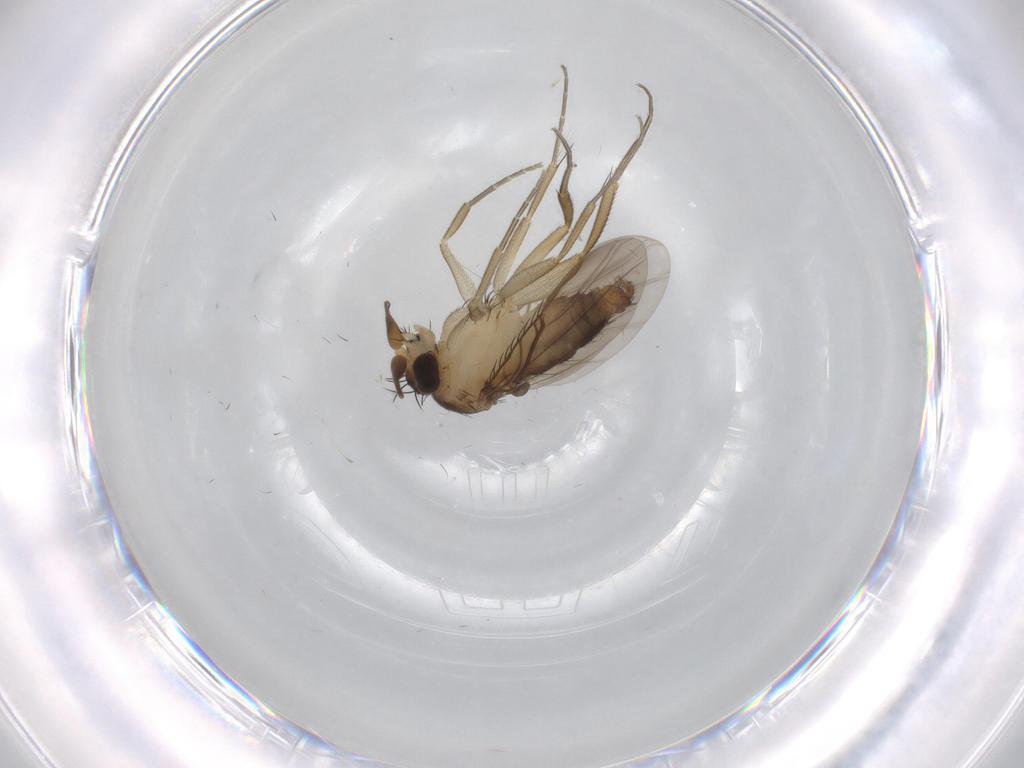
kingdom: Animalia
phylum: Arthropoda
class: Insecta
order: Diptera
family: Phoridae
